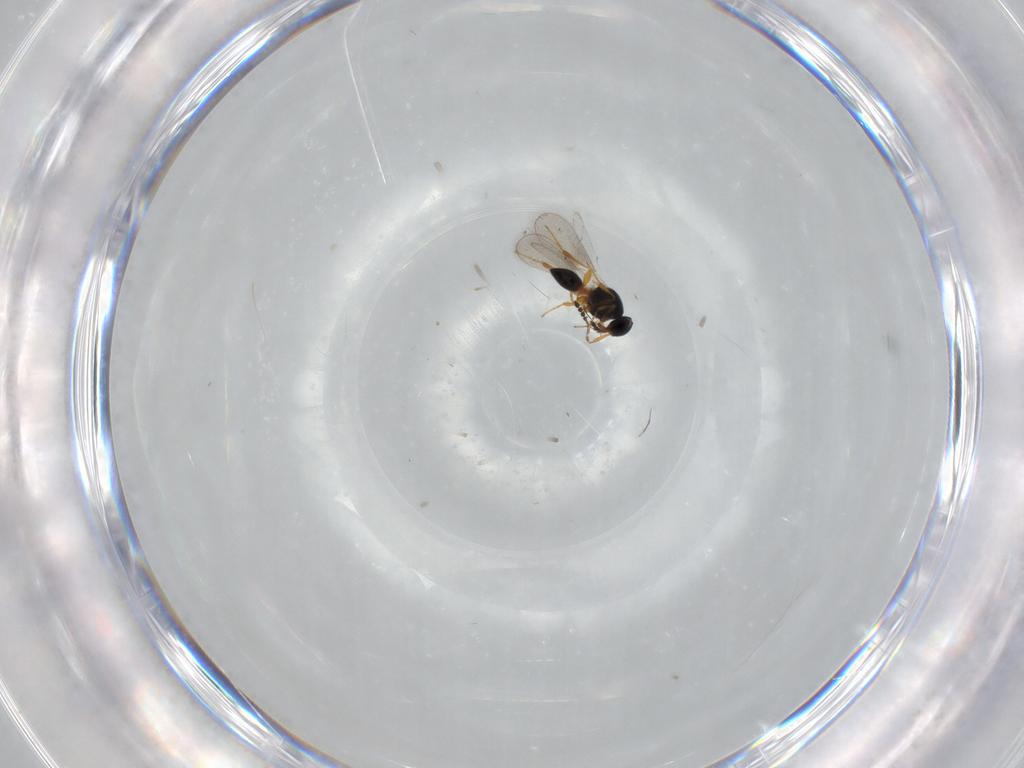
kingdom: Animalia
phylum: Arthropoda
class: Insecta
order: Hymenoptera
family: Platygastridae
